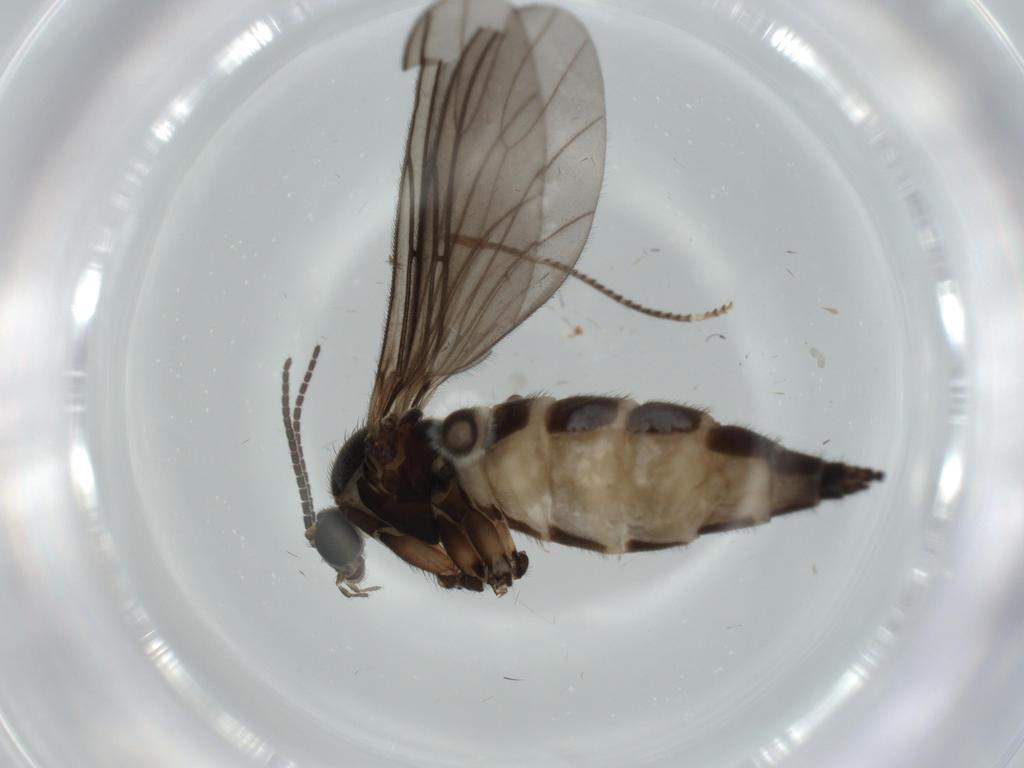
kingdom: Animalia
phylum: Arthropoda
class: Insecta
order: Diptera
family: Sciaridae
